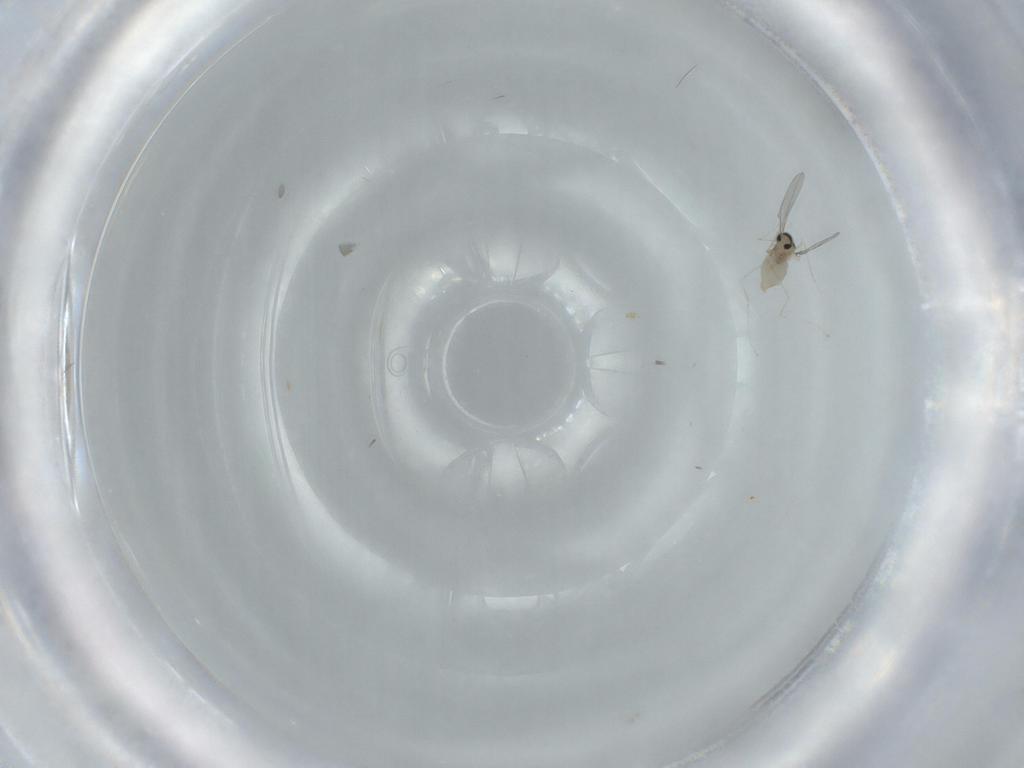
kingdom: Animalia
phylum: Arthropoda
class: Insecta
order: Diptera
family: Cecidomyiidae
